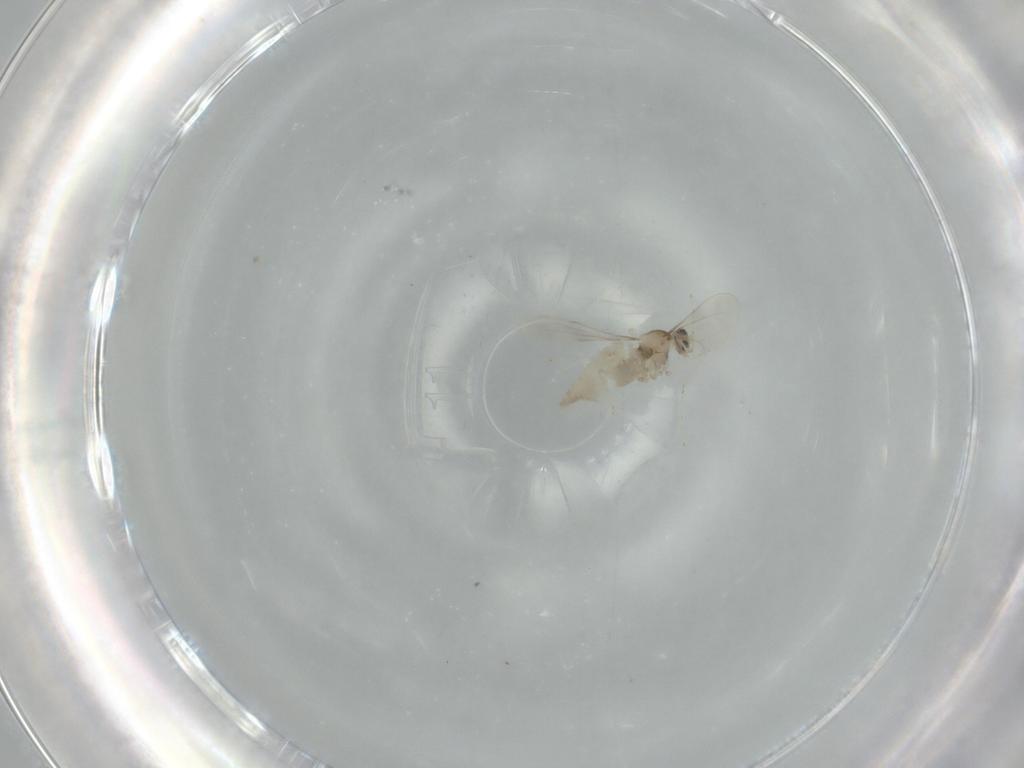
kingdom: Animalia
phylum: Arthropoda
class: Insecta
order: Diptera
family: Cecidomyiidae
